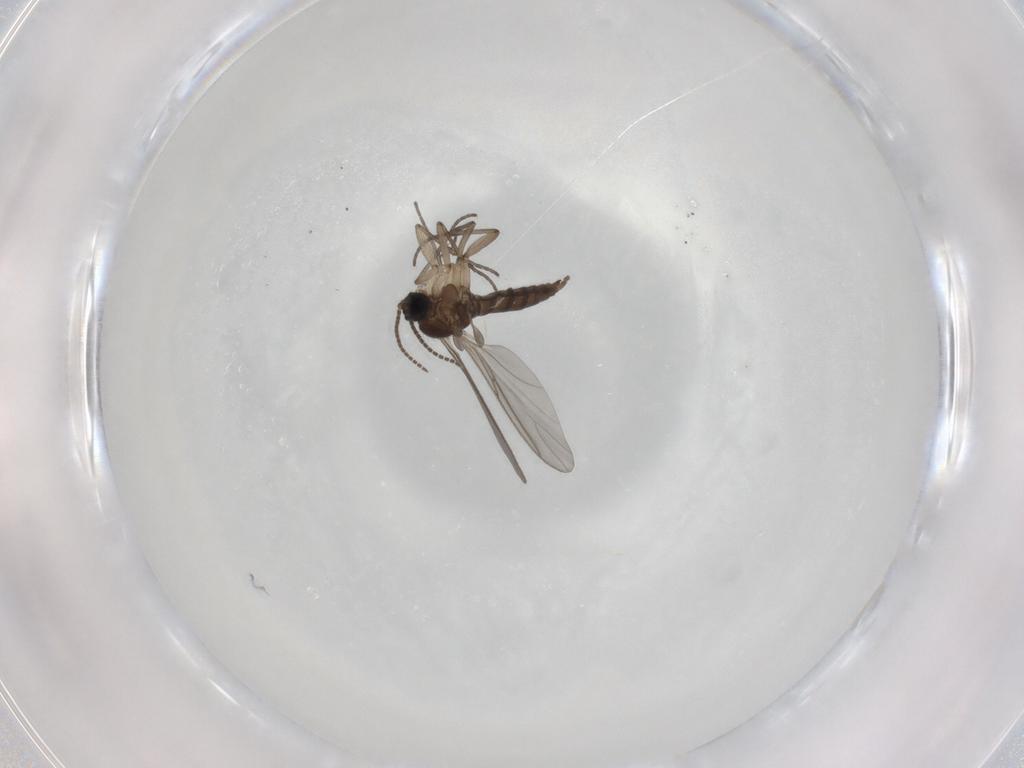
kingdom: Animalia
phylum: Arthropoda
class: Insecta
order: Diptera
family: Sciaridae
